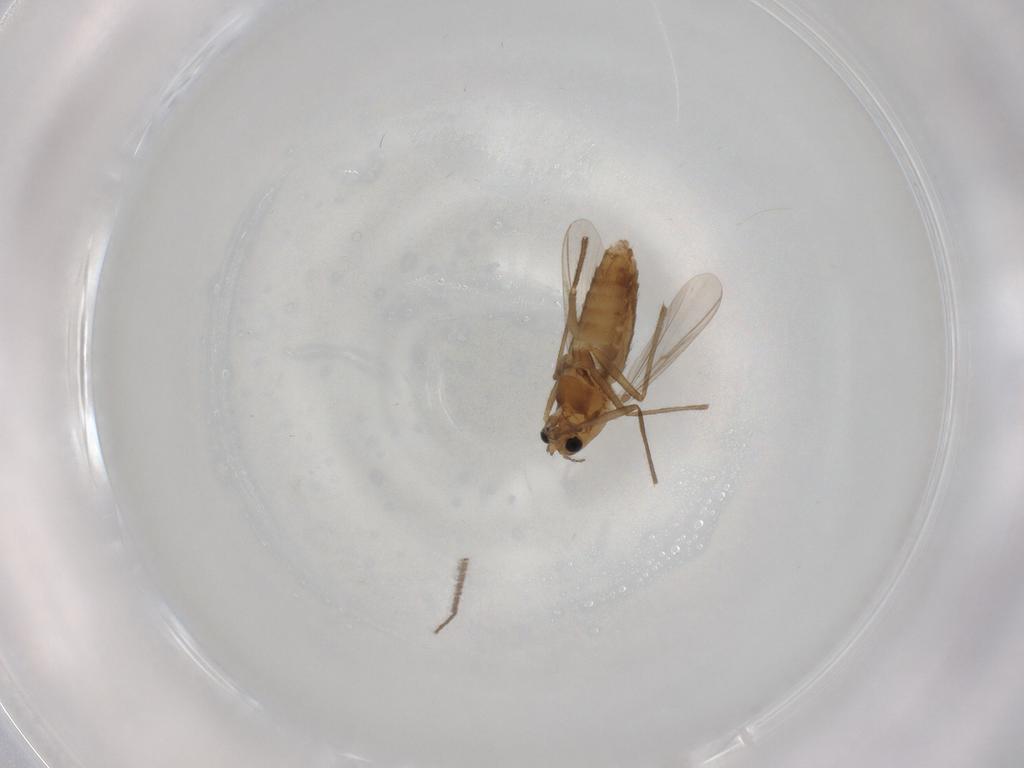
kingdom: Animalia
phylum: Arthropoda
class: Insecta
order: Diptera
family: Chironomidae
